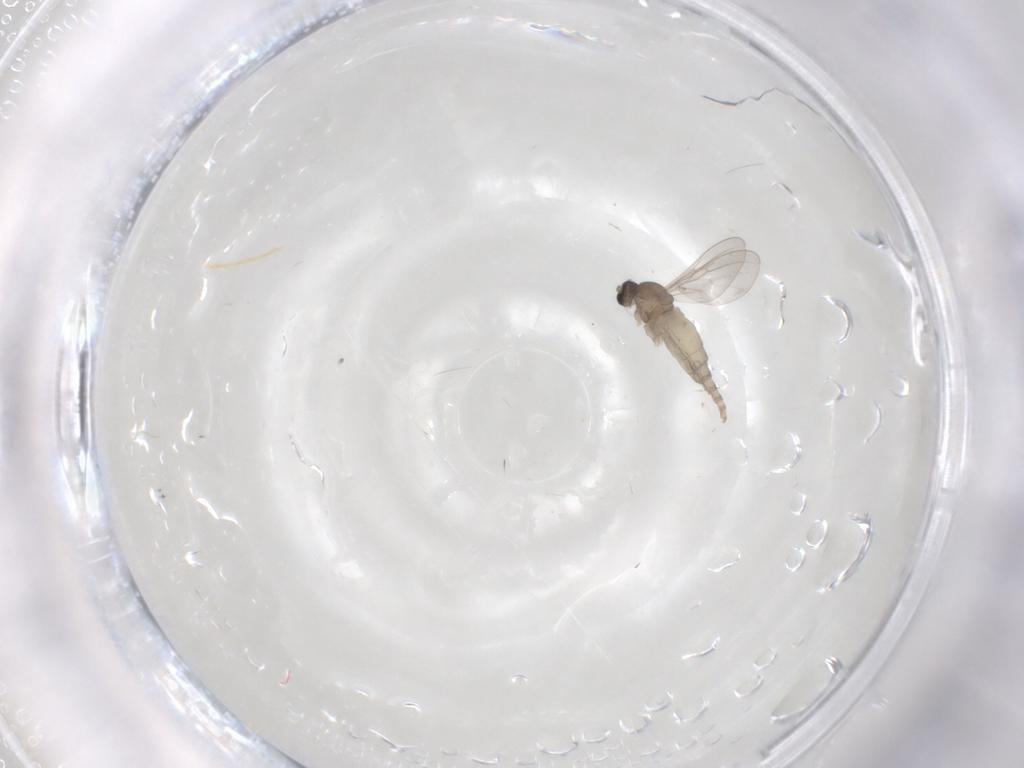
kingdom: Animalia
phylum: Arthropoda
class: Insecta
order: Diptera
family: Cecidomyiidae
